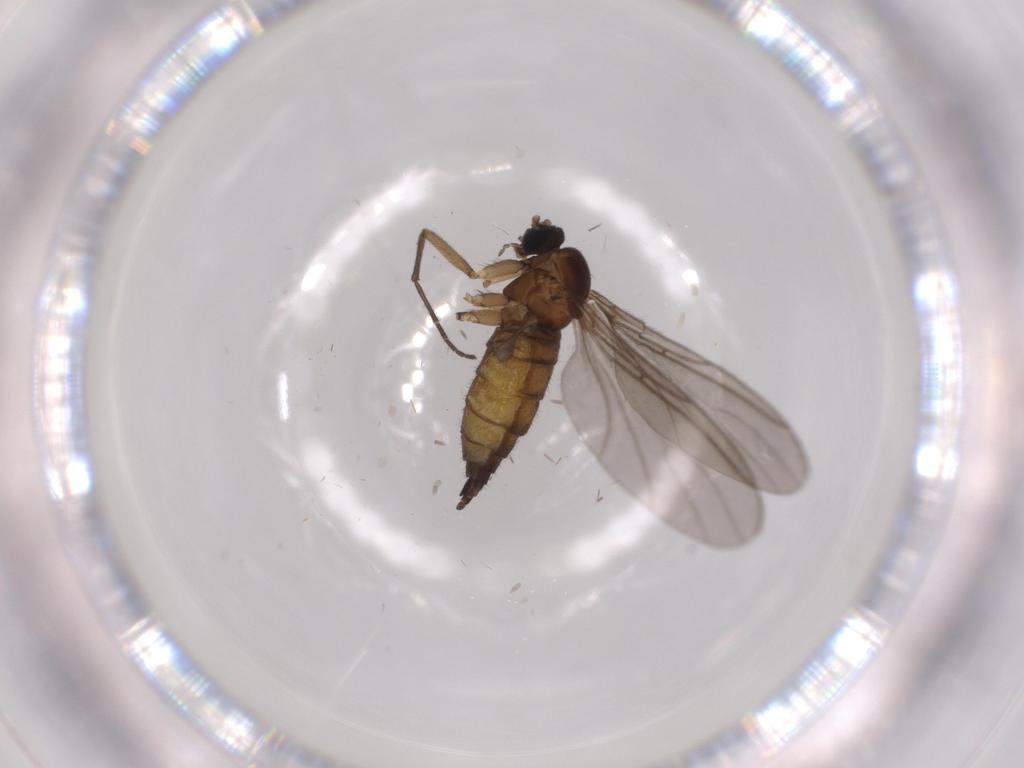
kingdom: Animalia
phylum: Arthropoda
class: Insecta
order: Diptera
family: Sciaridae
